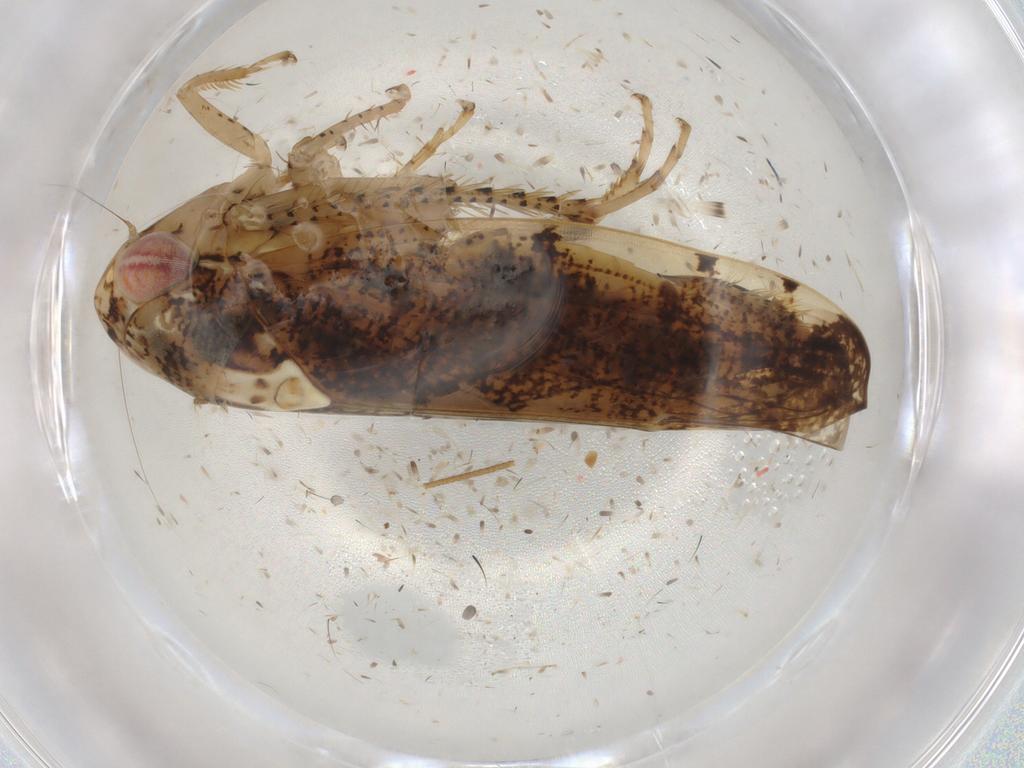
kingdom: Animalia
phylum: Arthropoda
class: Insecta
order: Hemiptera
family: Cicadellidae
